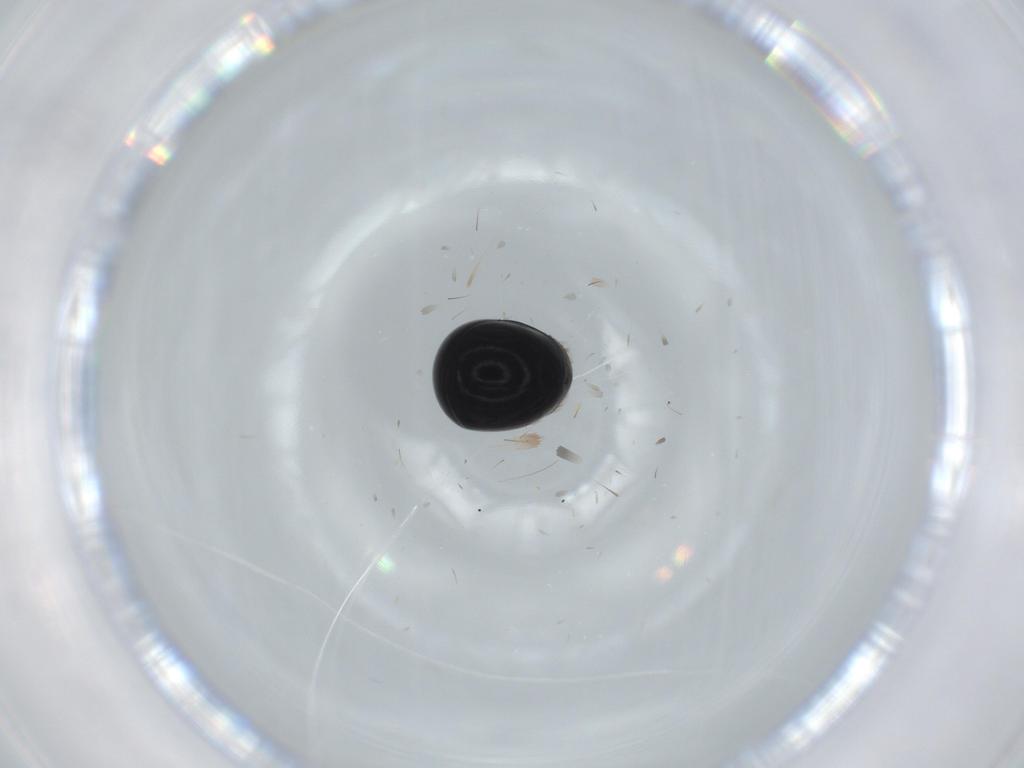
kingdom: Animalia
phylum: Arthropoda
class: Insecta
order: Coleoptera
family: Cybocephalidae
